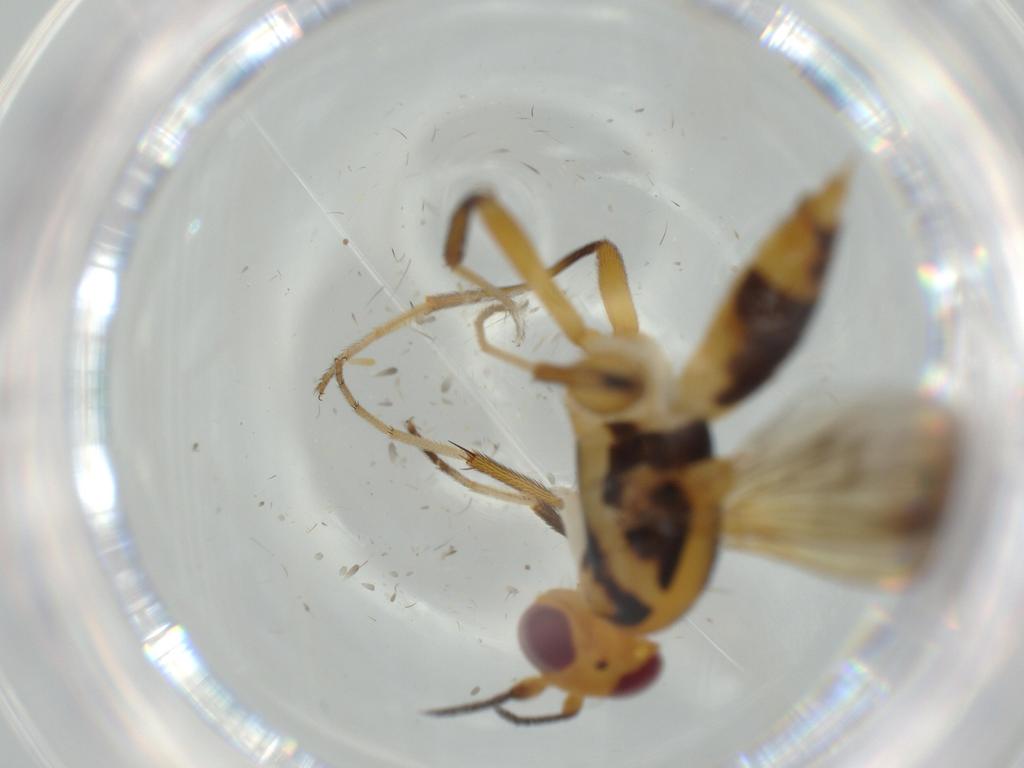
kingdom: Animalia
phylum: Arthropoda
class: Insecta
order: Diptera
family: Clusiidae
